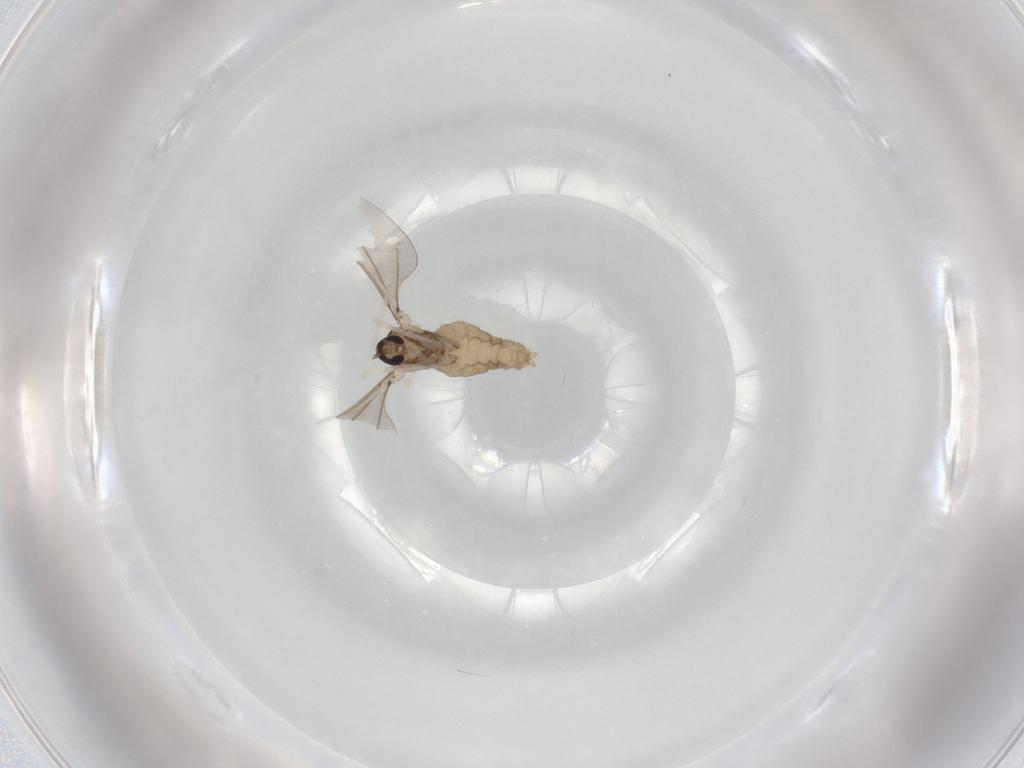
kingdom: Animalia
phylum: Arthropoda
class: Insecta
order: Diptera
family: Cecidomyiidae
